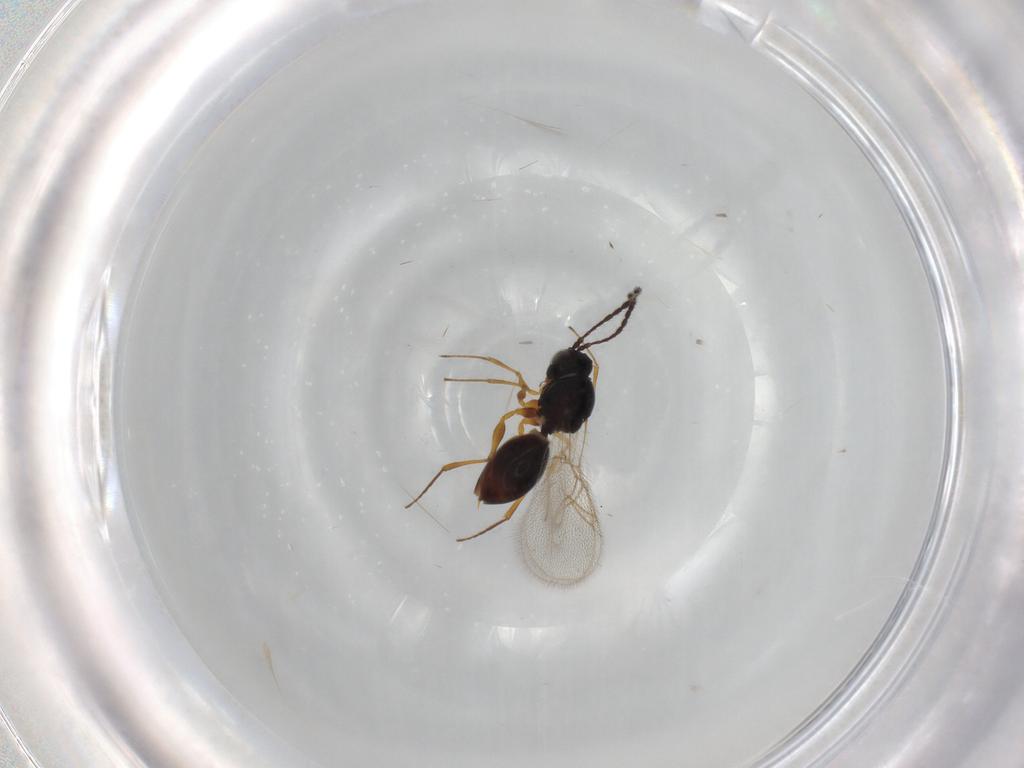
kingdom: Animalia
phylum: Arthropoda
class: Insecta
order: Hymenoptera
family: Figitidae
